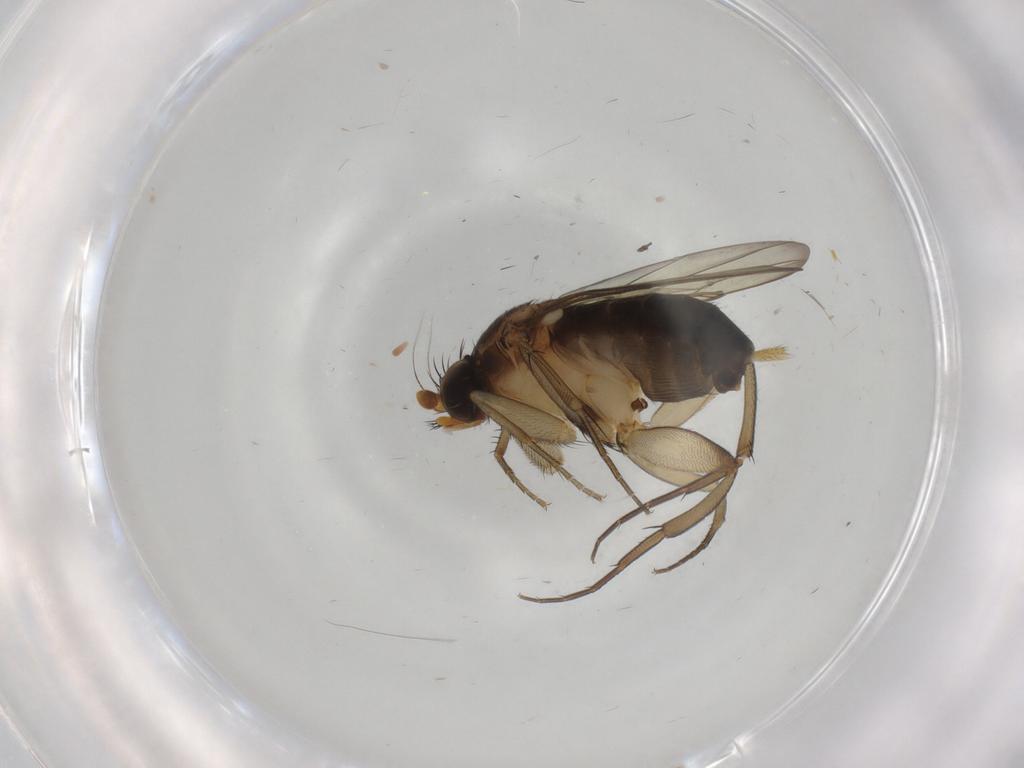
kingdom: Animalia
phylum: Arthropoda
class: Insecta
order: Diptera
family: Phoridae
